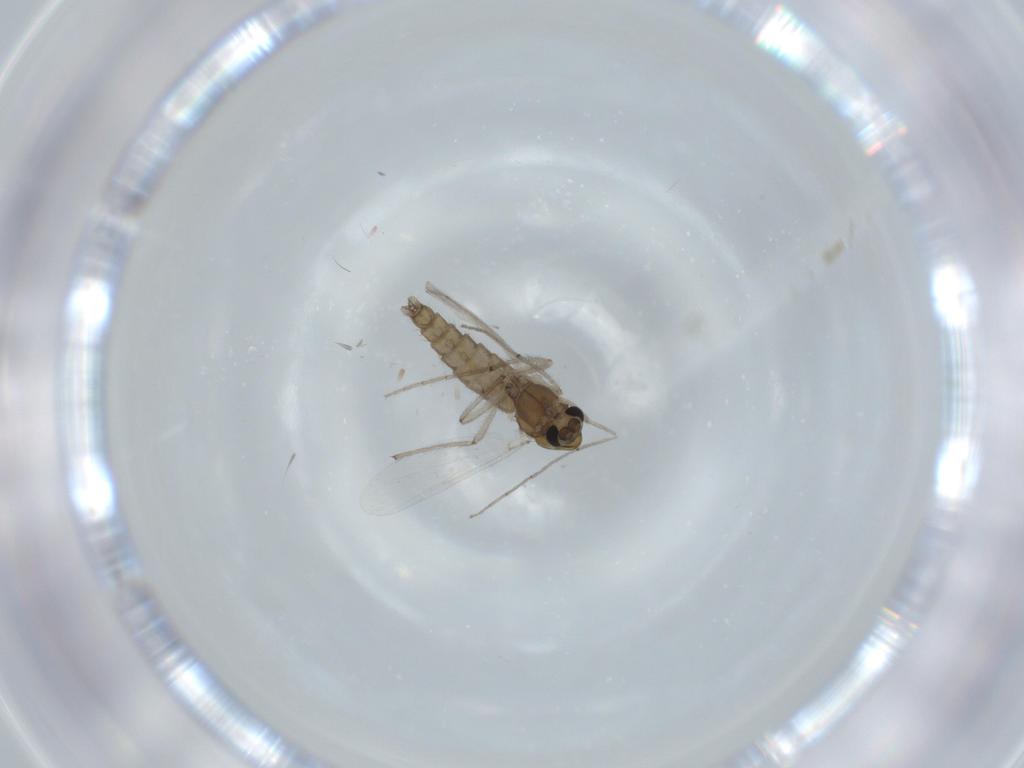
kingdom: Animalia
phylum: Arthropoda
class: Insecta
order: Diptera
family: Chironomidae
